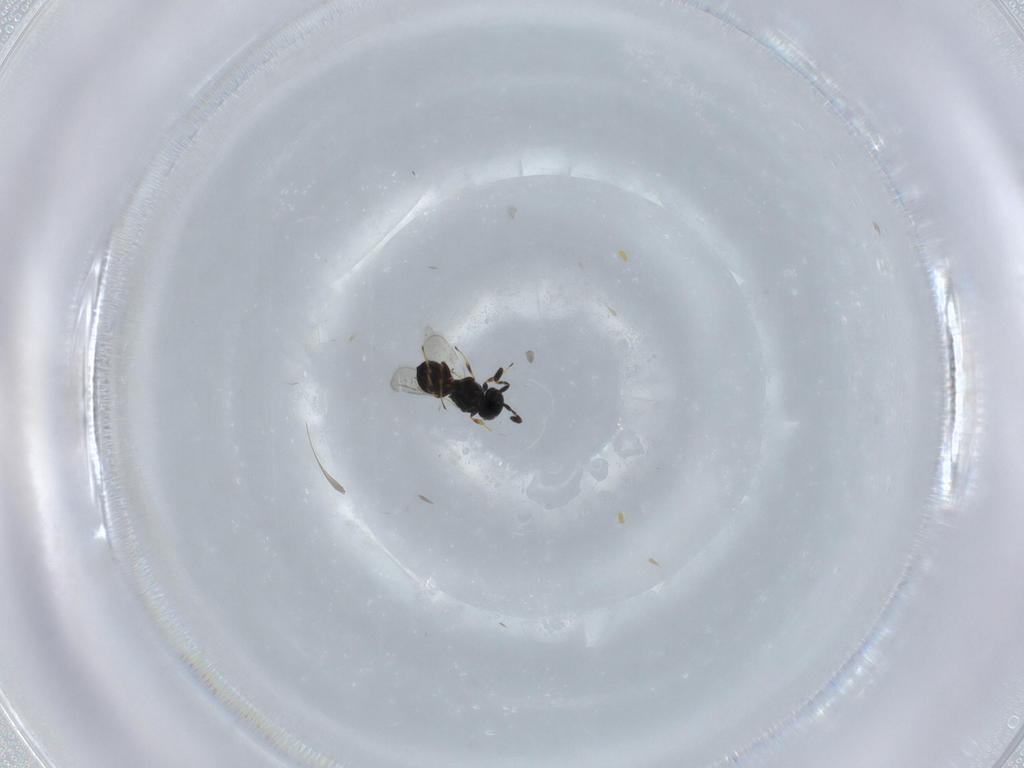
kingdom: Animalia
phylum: Arthropoda
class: Insecta
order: Hymenoptera
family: Scelionidae
